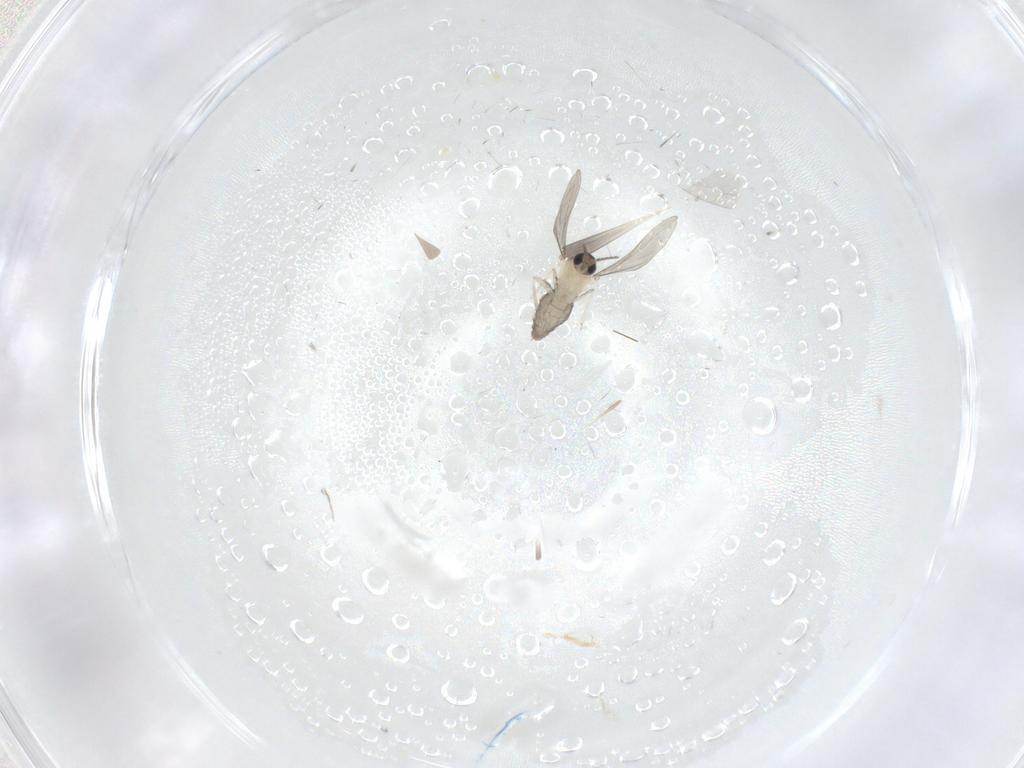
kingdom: Animalia
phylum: Arthropoda
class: Insecta
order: Diptera
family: Cecidomyiidae
